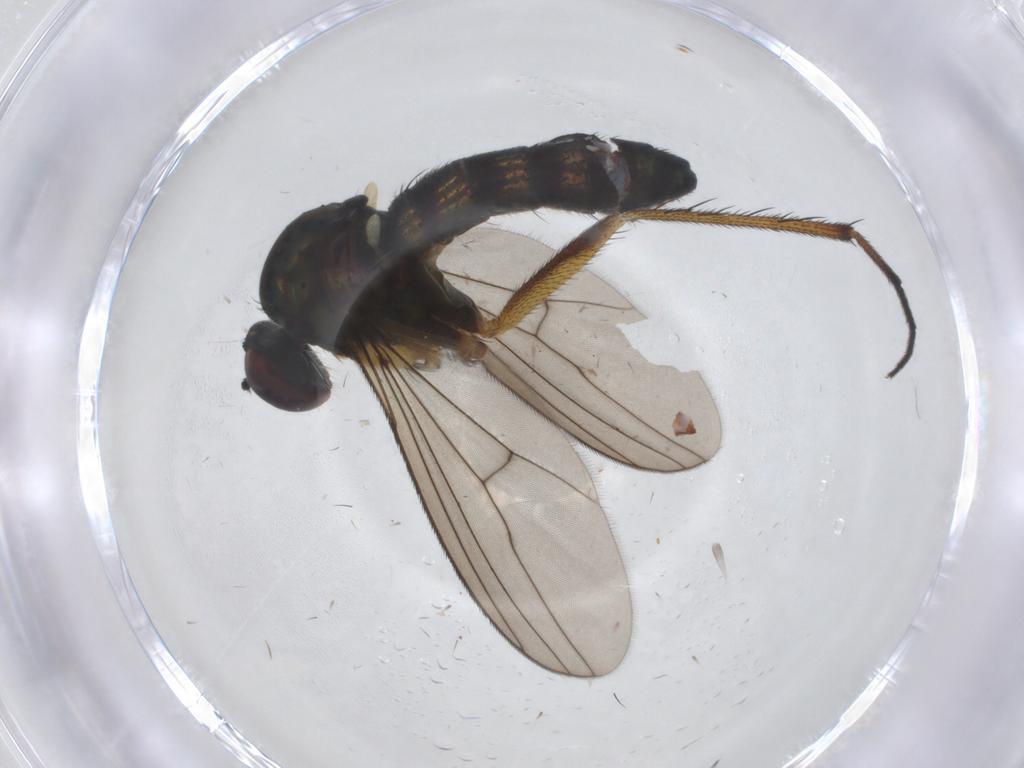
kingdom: Animalia
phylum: Arthropoda
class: Insecta
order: Diptera
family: Dolichopodidae
